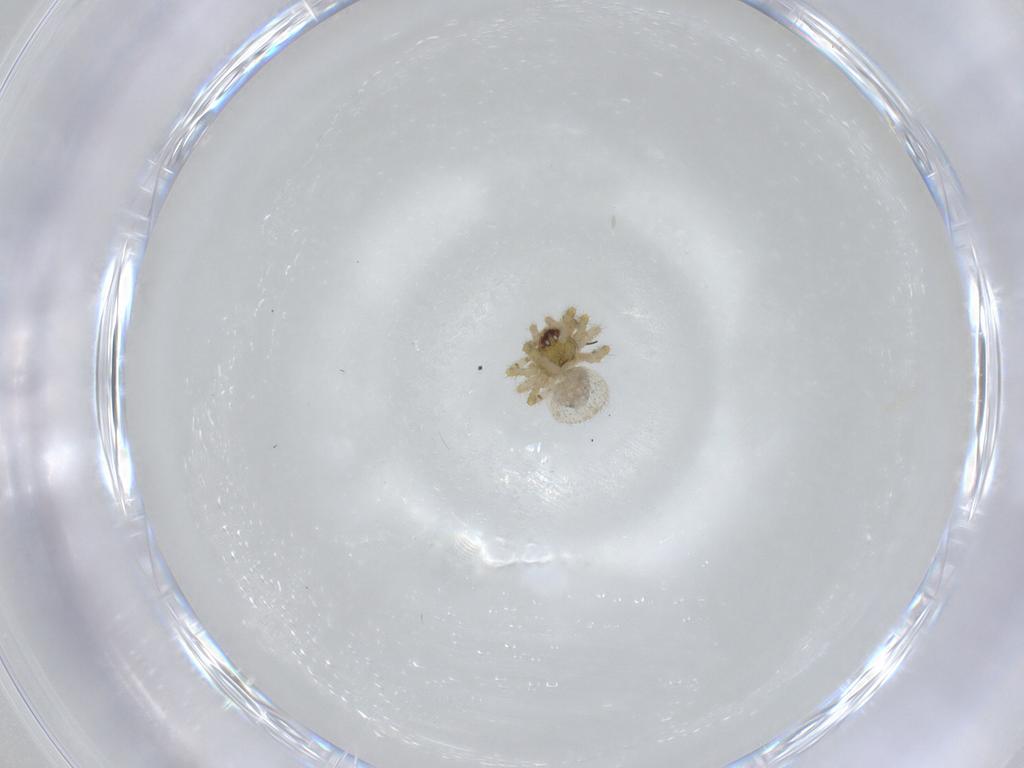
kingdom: Animalia
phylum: Arthropoda
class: Arachnida
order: Araneae
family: Theridiidae
